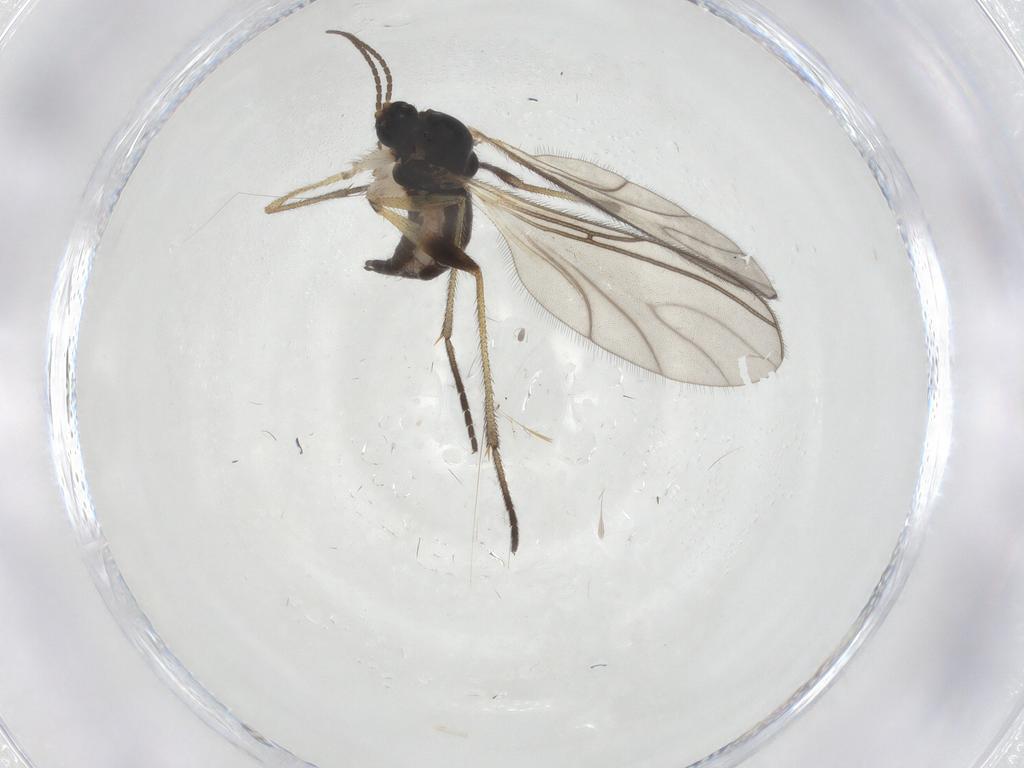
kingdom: Animalia
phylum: Arthropoda
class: Insecta
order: Diptera
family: Sciaridae
